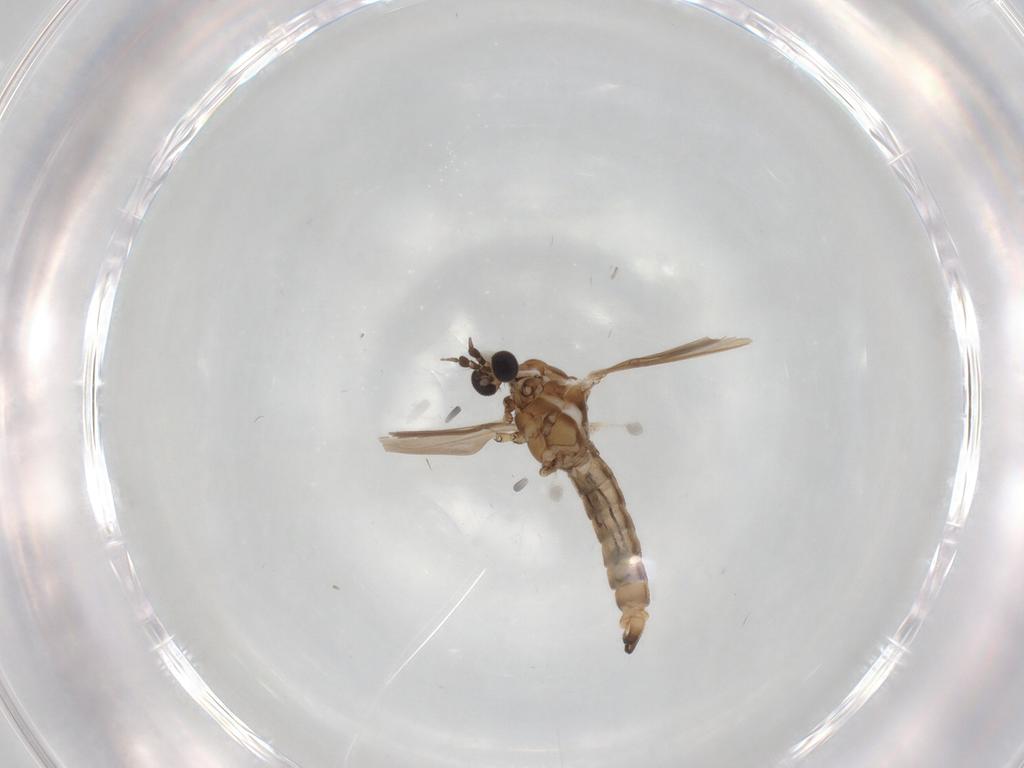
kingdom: Animalia
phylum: Arthropoda
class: Insecta
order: Diptera
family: Limoniidae
